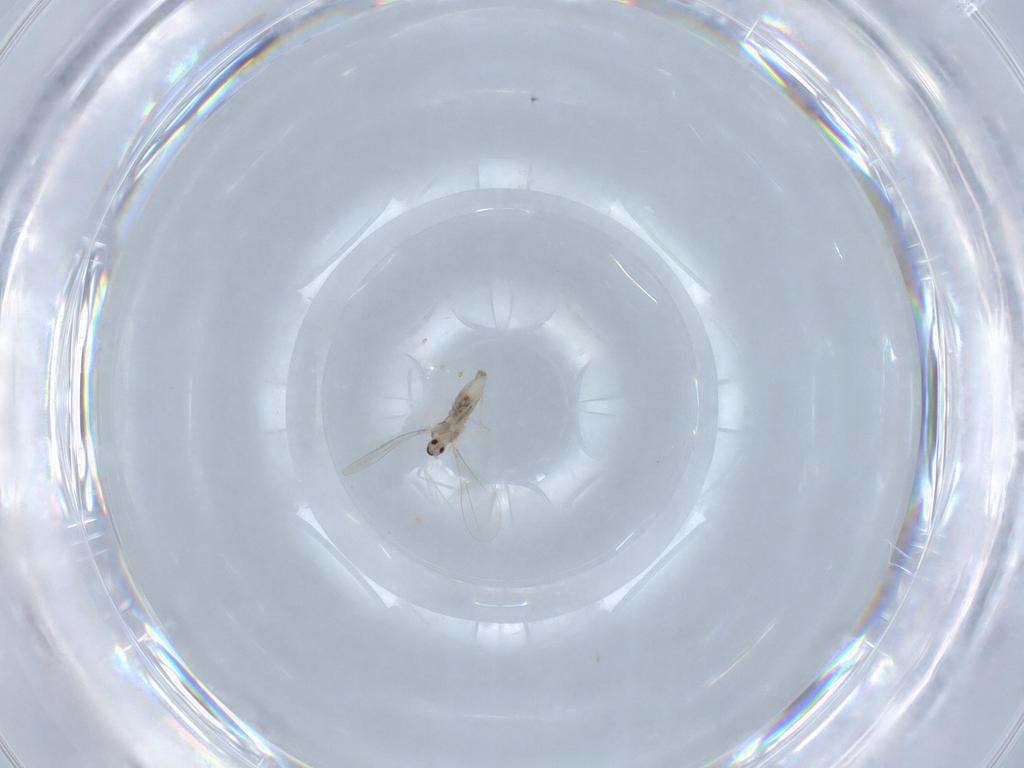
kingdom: Animalia
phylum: Arthropoda
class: Insecta
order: Diptera
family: Cecidomyiidae
